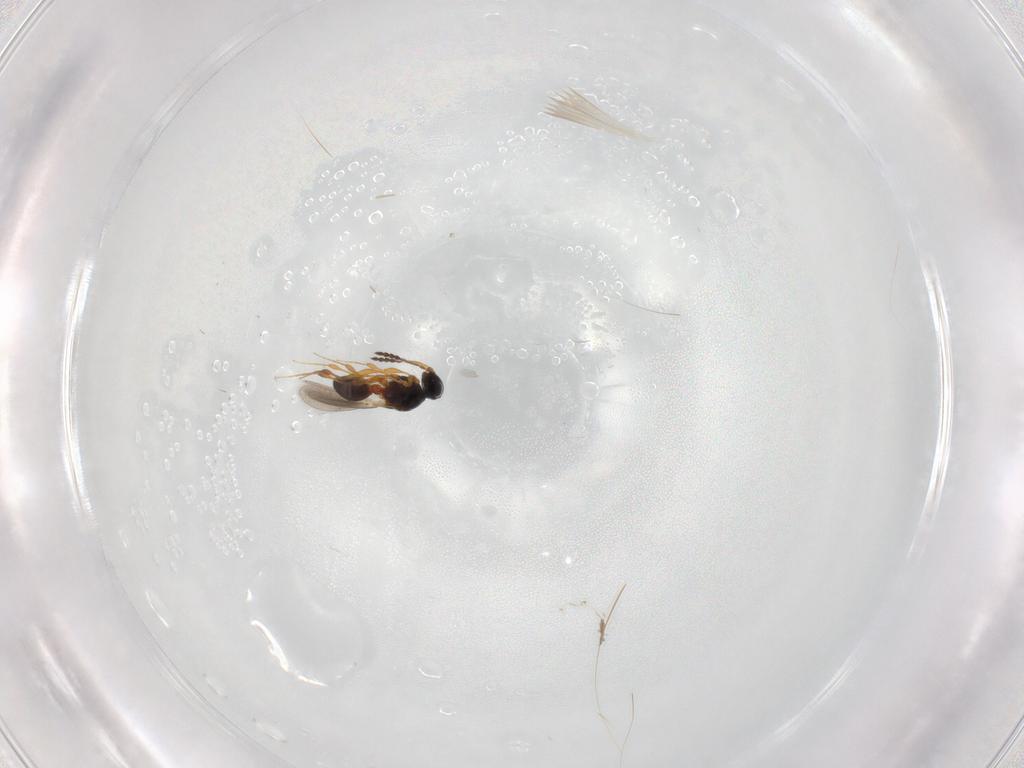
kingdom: Animalia
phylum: Arthropoda
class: Insecta
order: Hymenoptera
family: Platygastridae
